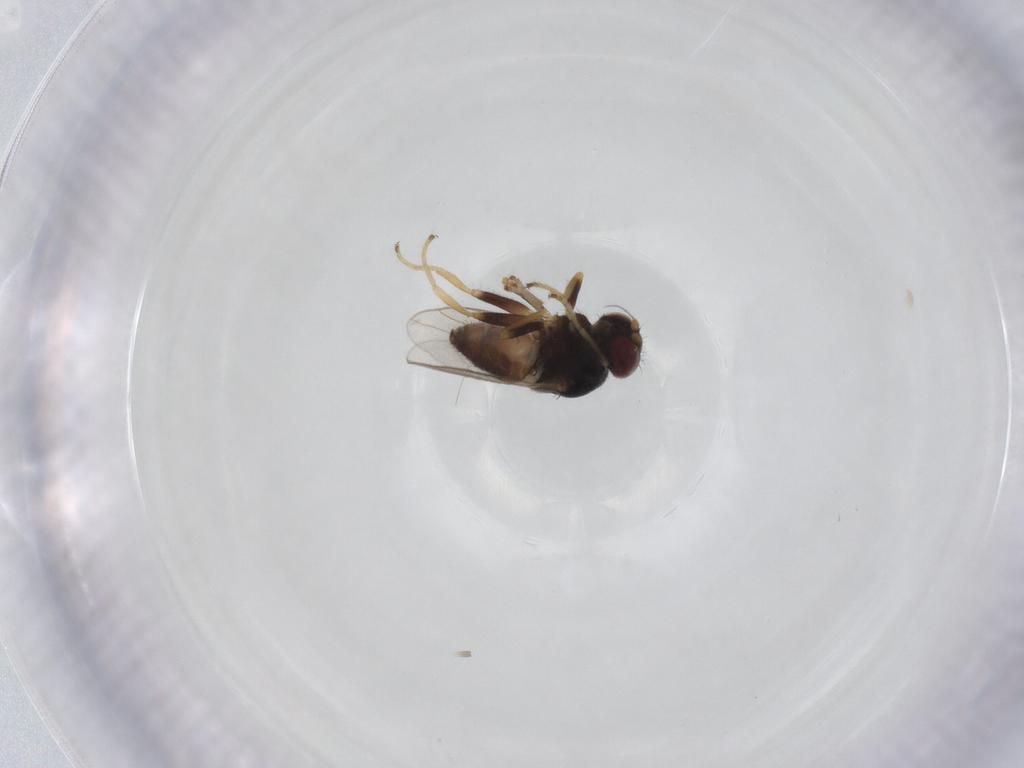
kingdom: Animalia
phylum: Arthropoda
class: Insecta
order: Diptera
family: Chloropidae
